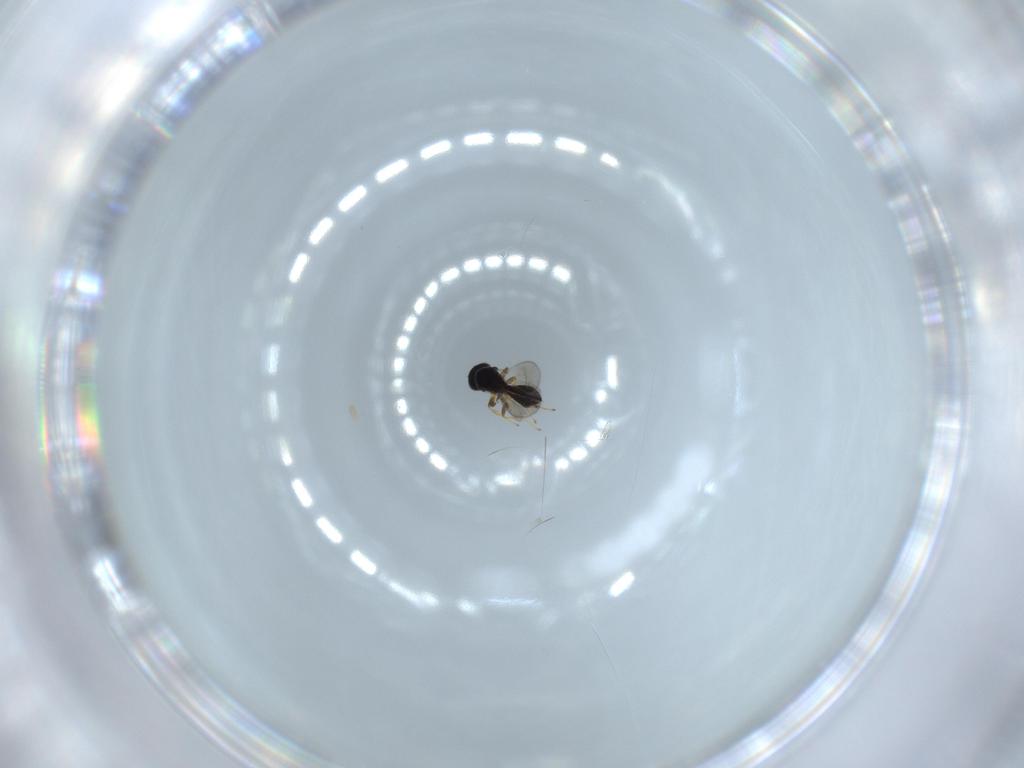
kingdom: Animalia
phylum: Arthropoda
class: Insecta
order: Hymenoptera
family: Platygastridae
